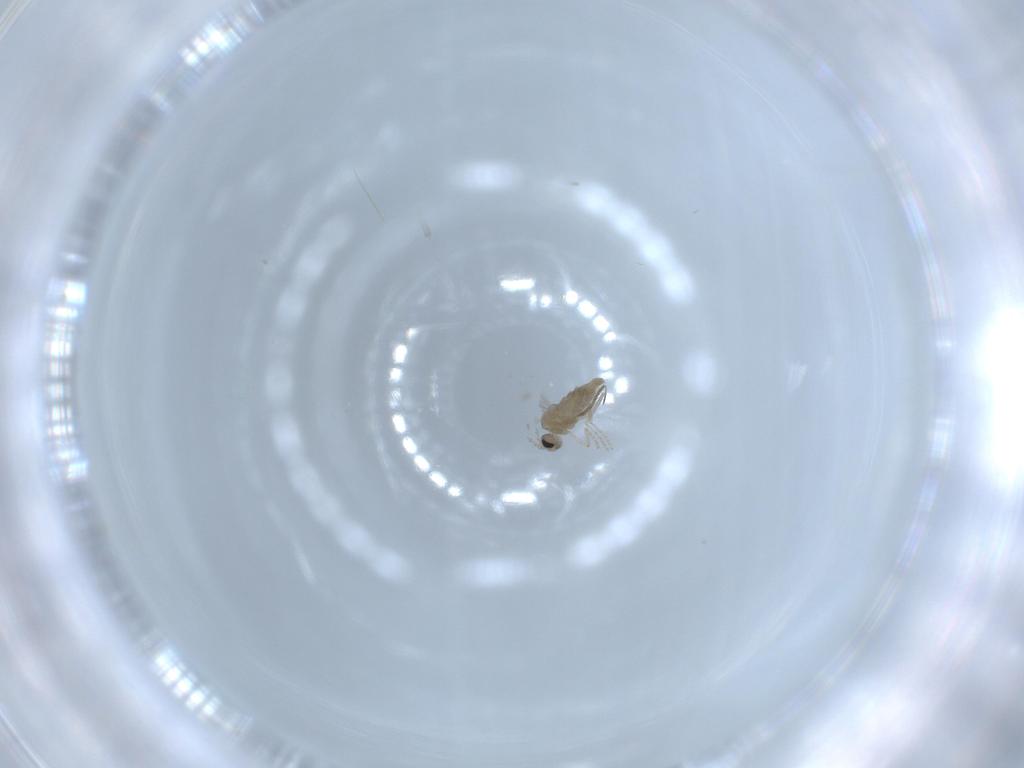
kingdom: Animalia
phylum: Arthropoda
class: Insecta
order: Diptera
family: Cecidomyiidae
